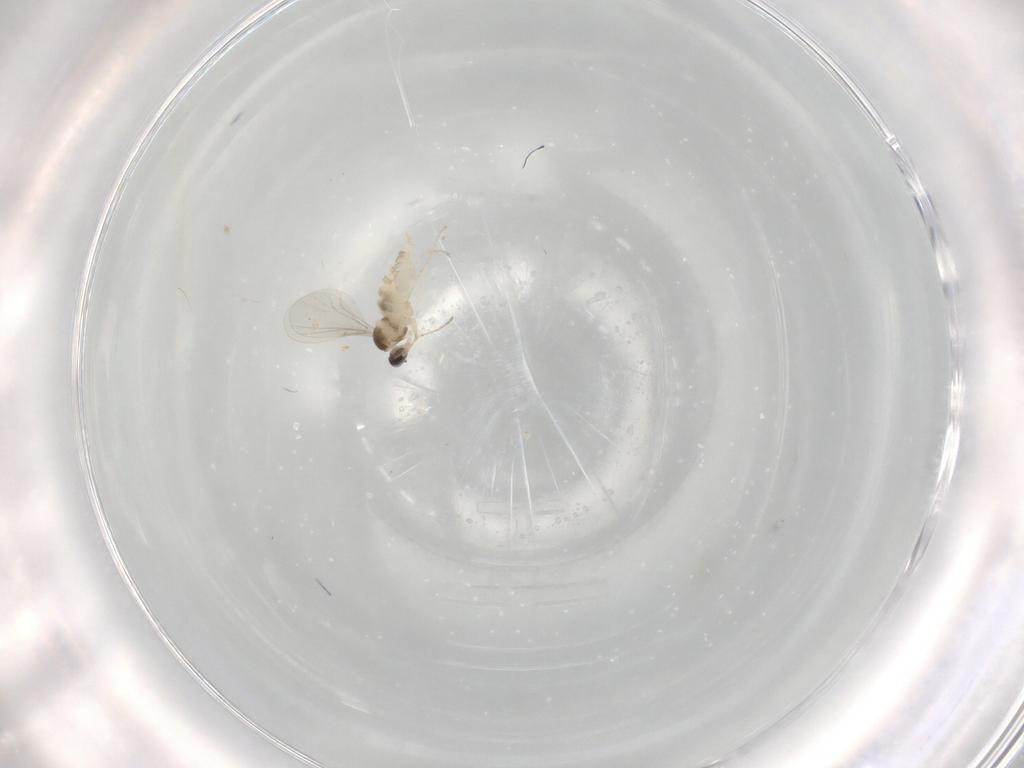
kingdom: Animalia
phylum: Arthropoda
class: Insecta
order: Diptera
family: Cecidomyiidae
